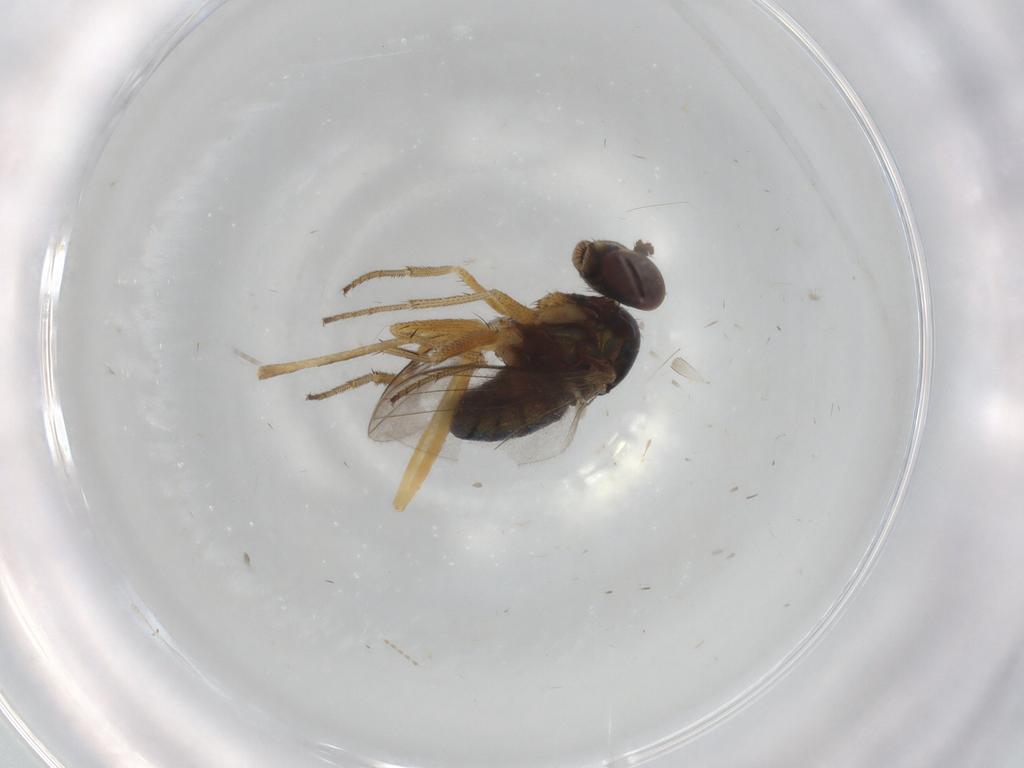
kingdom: Animalia
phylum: Arthropoda
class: Insecta
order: Diptera
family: Cecidomyiidae
